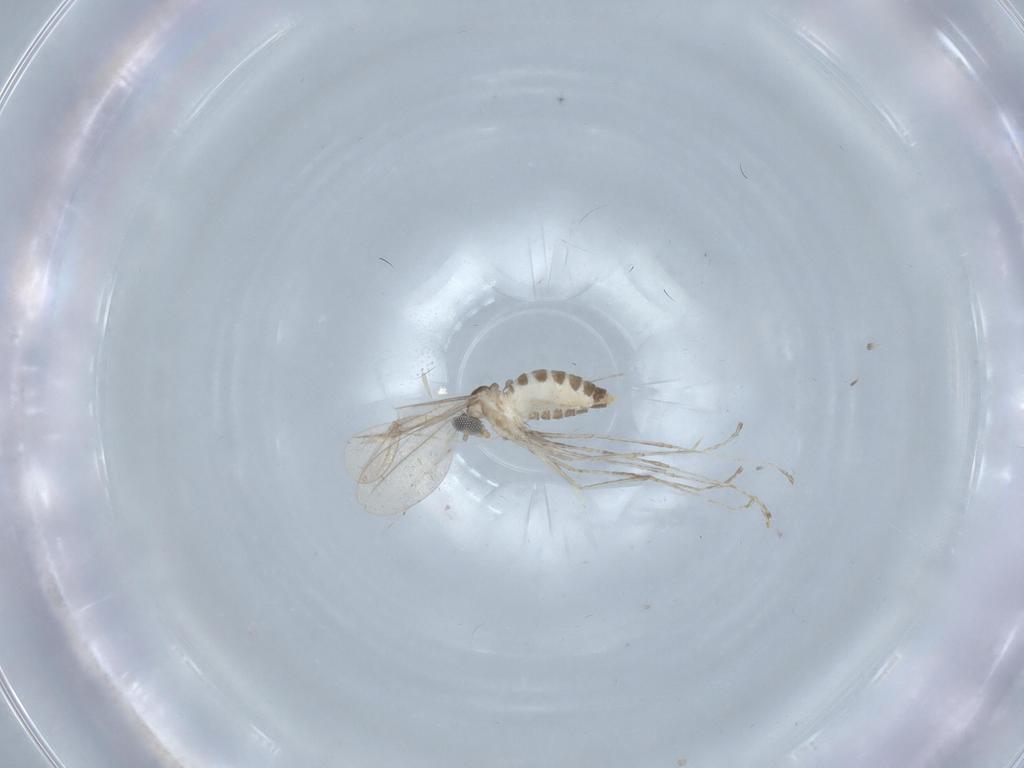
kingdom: Animalia
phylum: Arthropoda
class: Insecta
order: Diptera
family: Chironomidae
